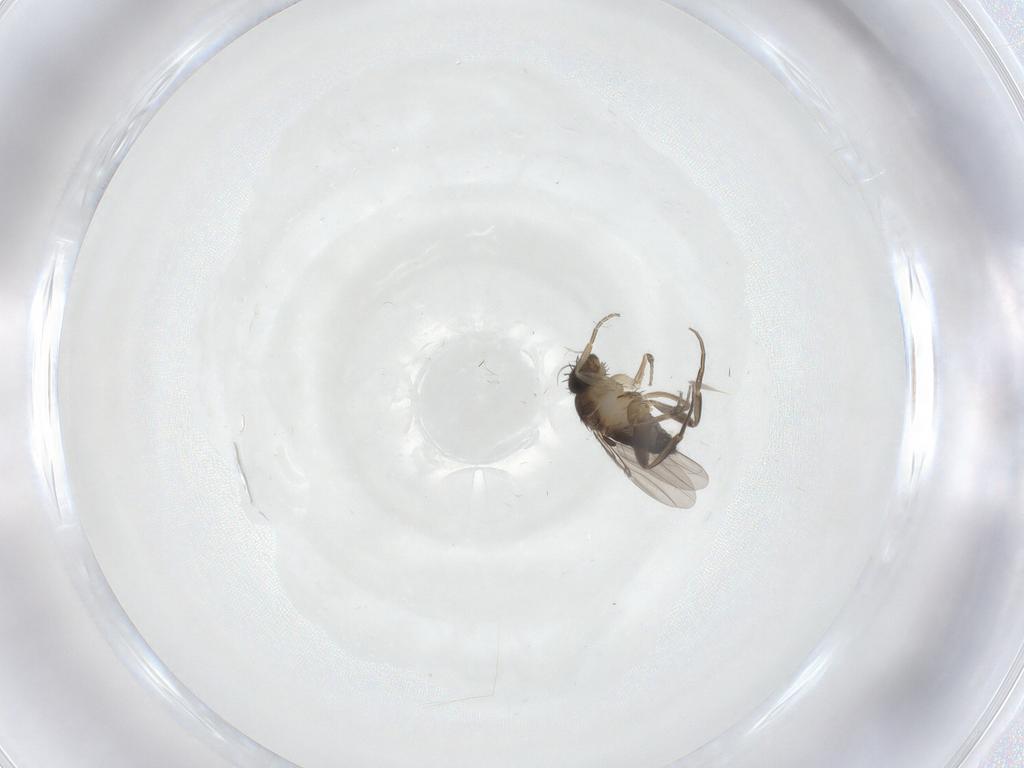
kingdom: Animalia
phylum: Arthropoda
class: Insecta
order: Diptera
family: Phoridae
